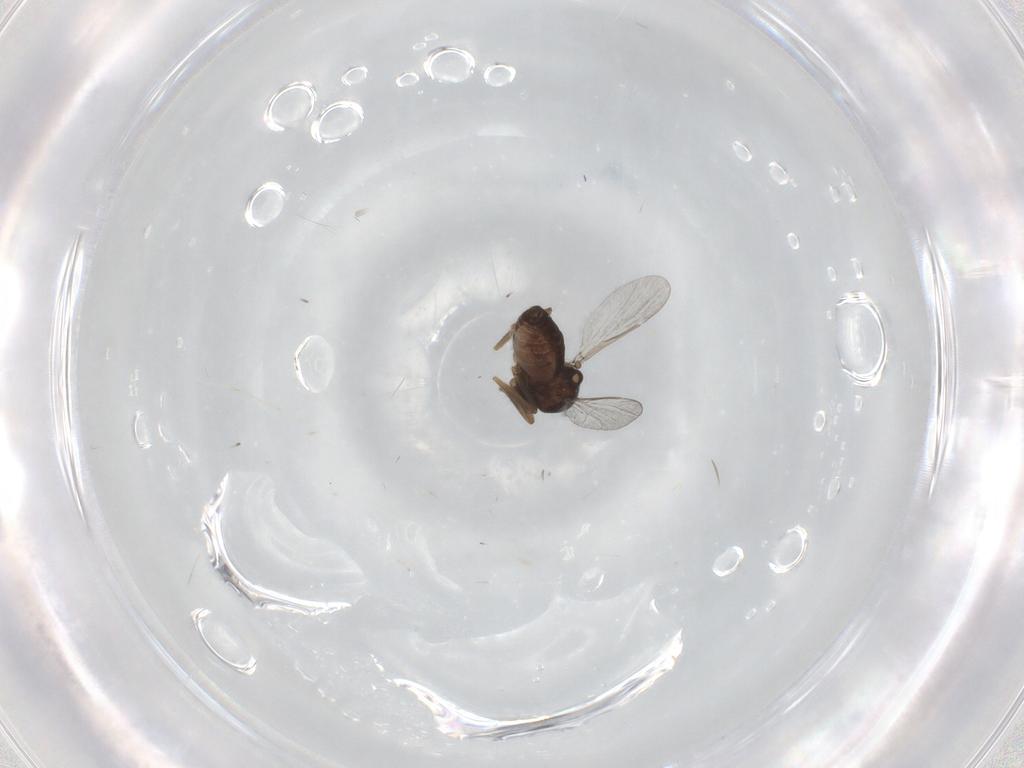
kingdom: Animalia
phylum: Arthropoda
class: Insecta
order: Diptera
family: Ceratopogonidae
